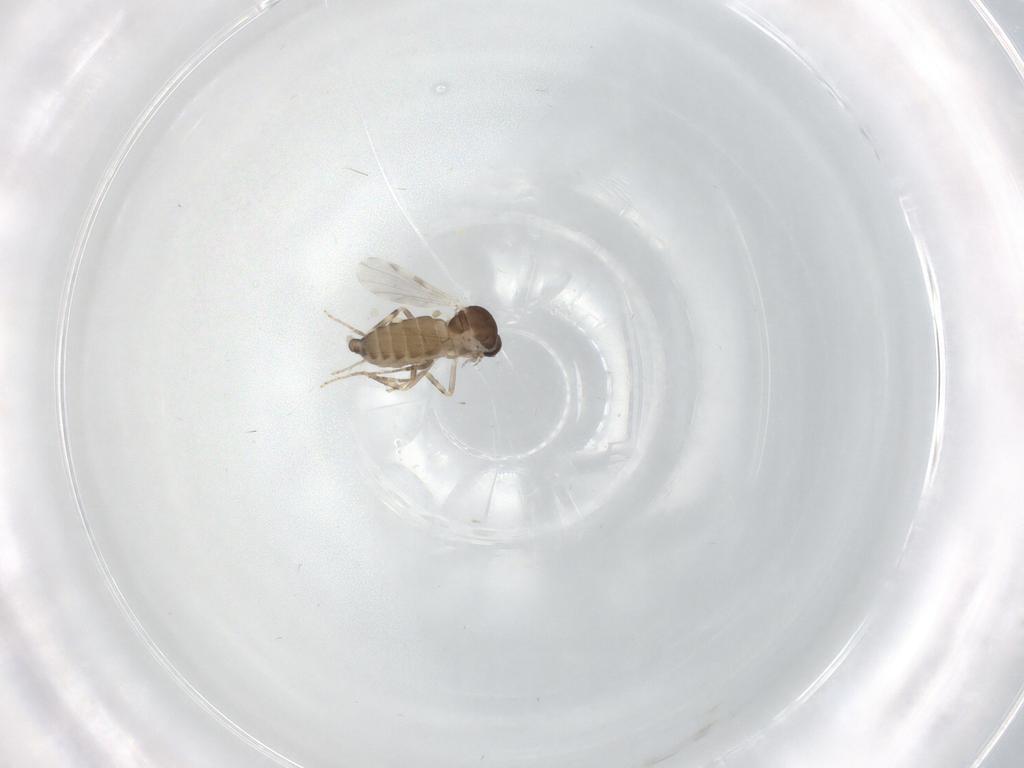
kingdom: Animalia
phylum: Arthropoda
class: Insecta
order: Diptera
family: Ceratopogonidae
